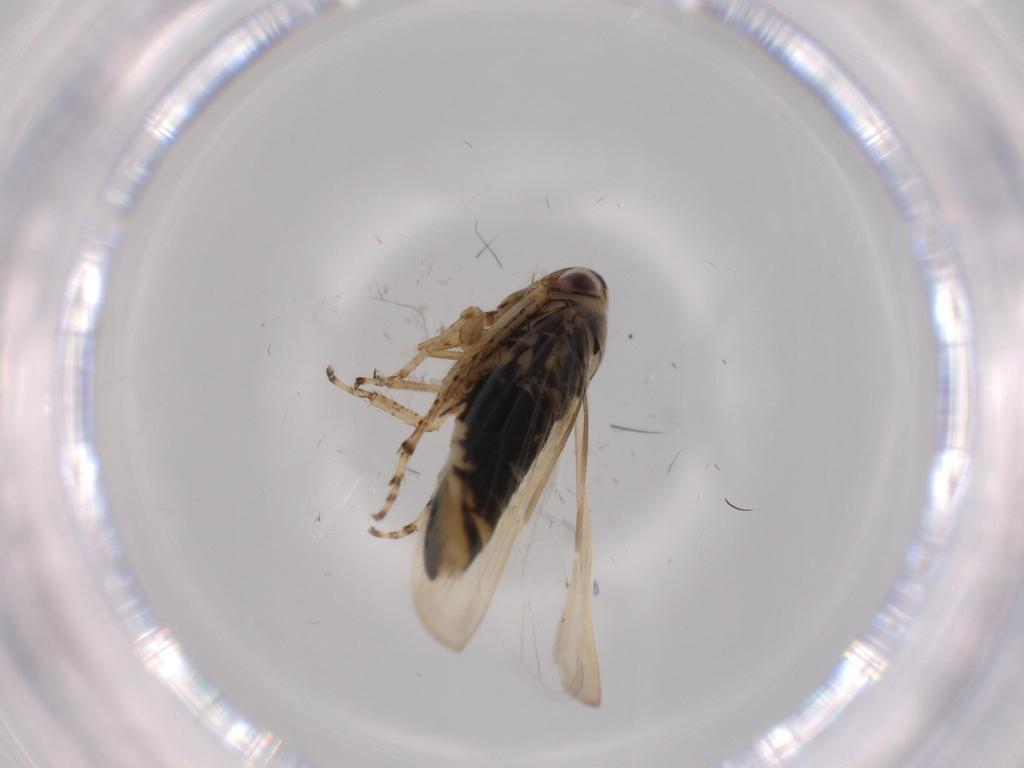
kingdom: Animalia
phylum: Arthropoda
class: Insecta
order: Hemiptera
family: Cicadellidae
